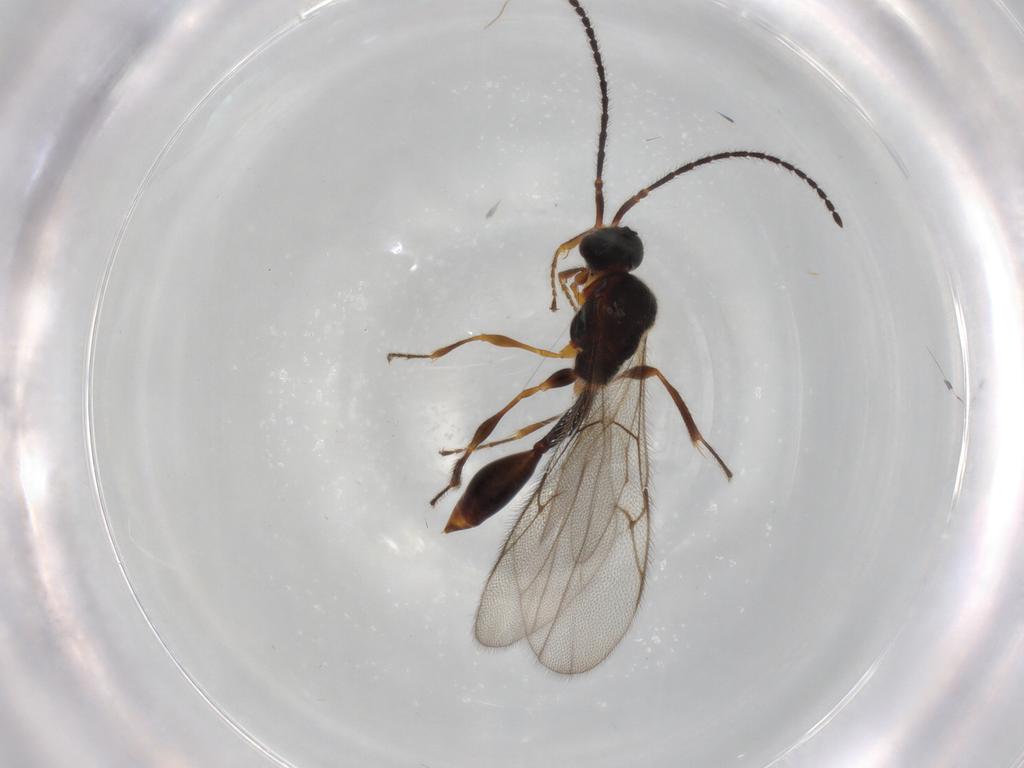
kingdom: Animalia
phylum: Arthropoda
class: Insecta
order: Hymenoptera
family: Diapriidae
